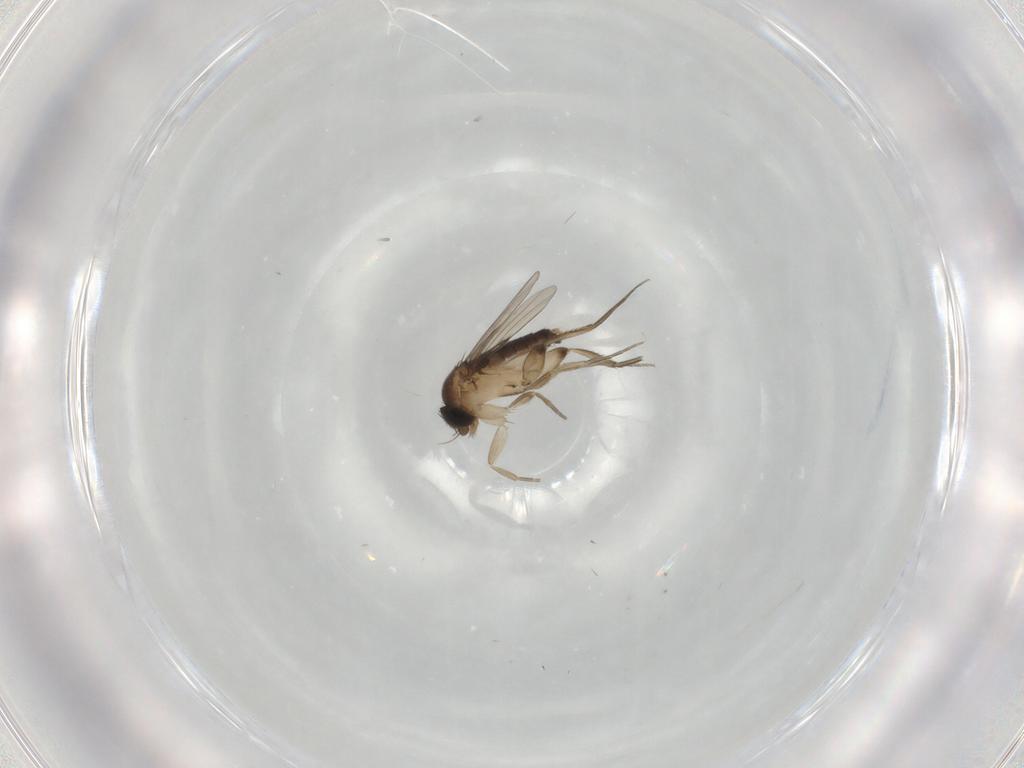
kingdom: Animalia
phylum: Arthropoda
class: Insecta
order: Diptera
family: Phoridae
